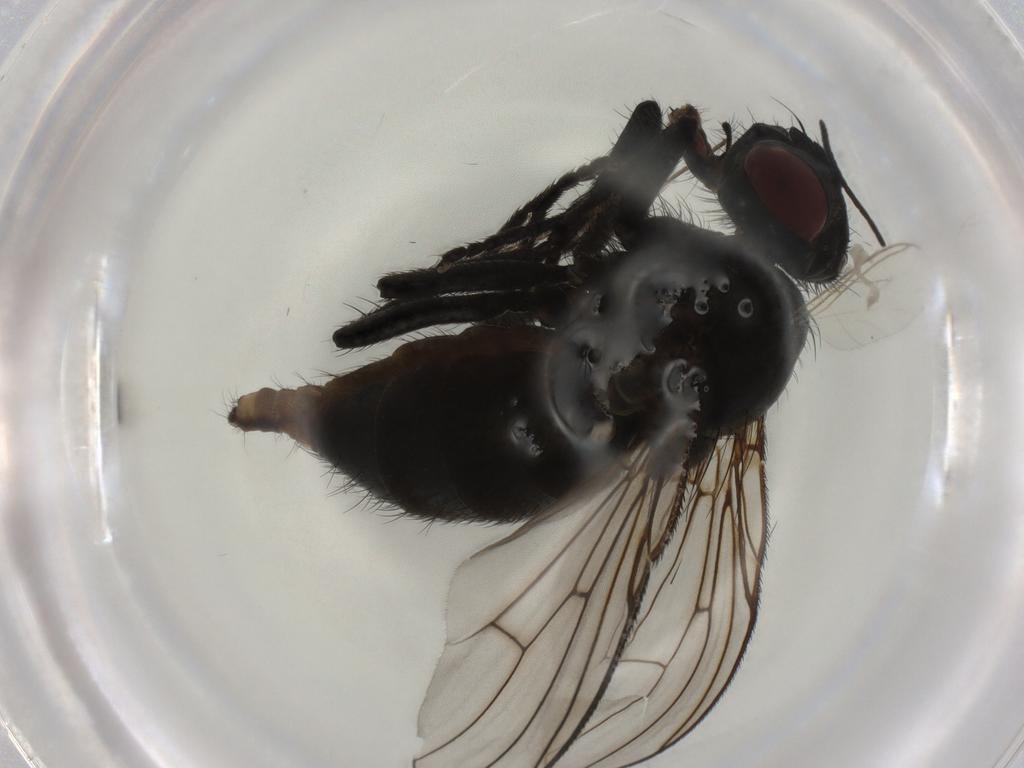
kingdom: Animalia
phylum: Arthropoda
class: Insecta
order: Diptera
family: Muscidae
